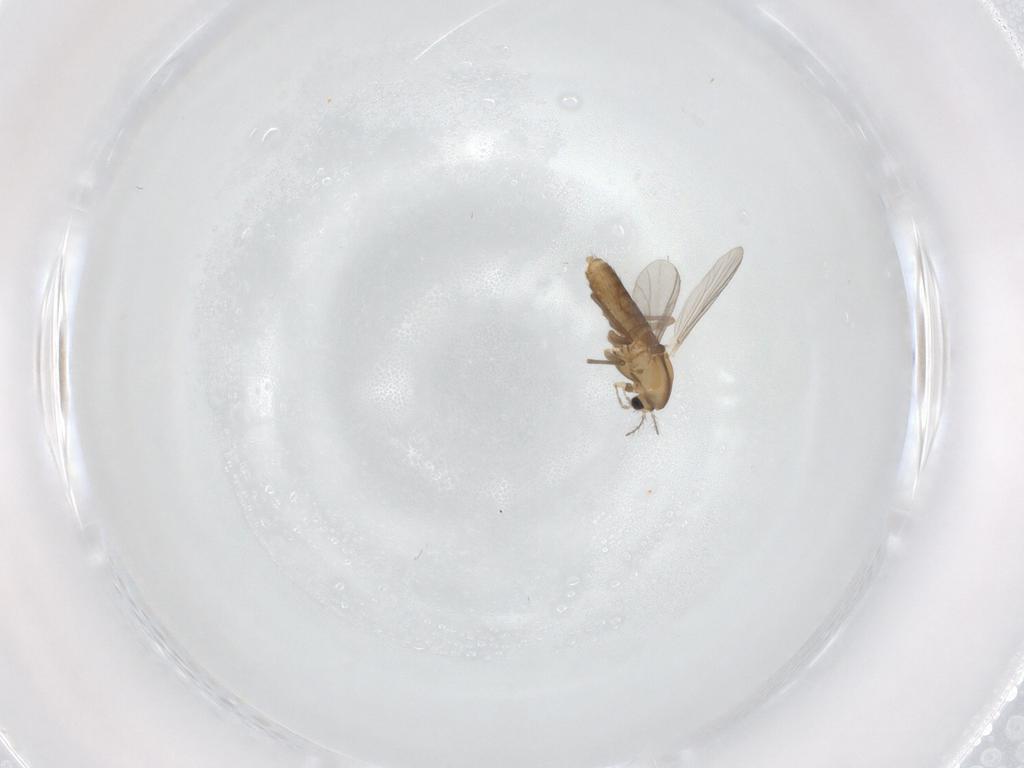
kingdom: Animalia
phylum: Arthropoda
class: Insecta
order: Diptera
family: Chironomidae
